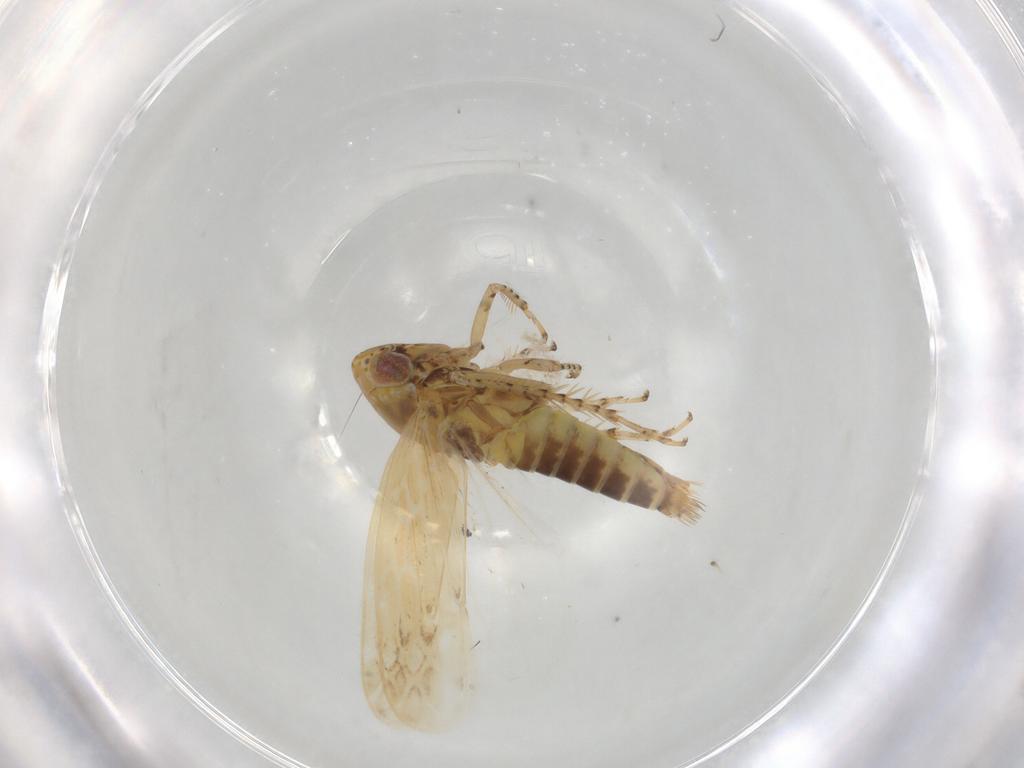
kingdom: Animalia
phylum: Arthropoda
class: Insecta
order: Hemiptera
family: Cicadellidae
